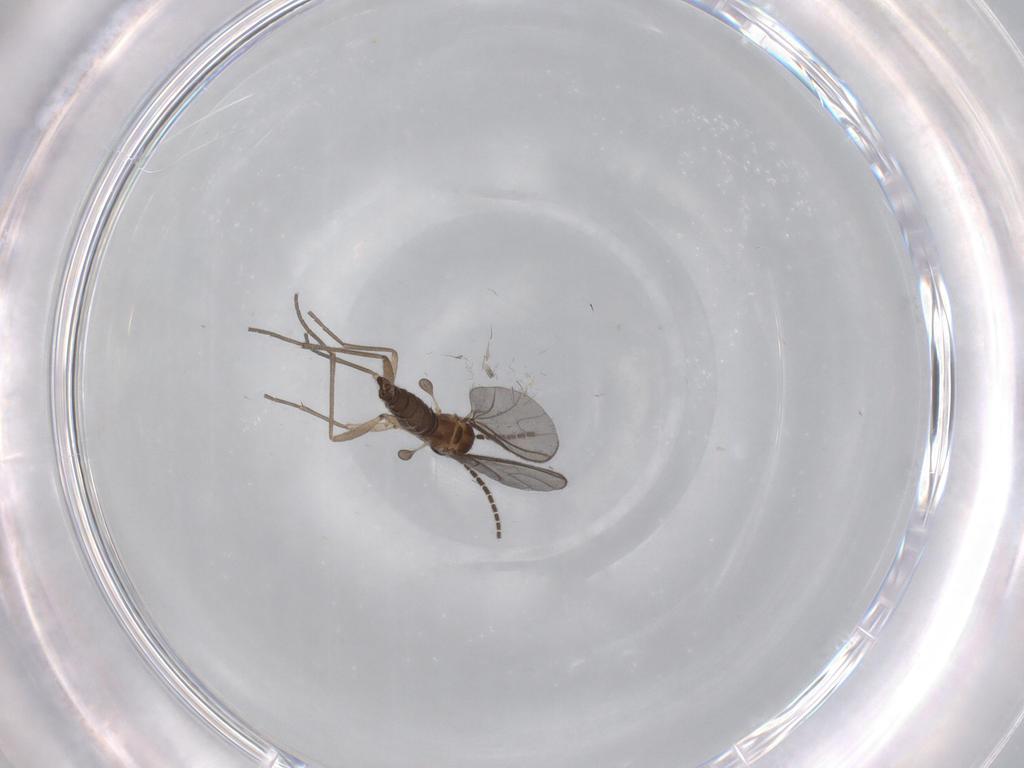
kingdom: Animalia
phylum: Arthropoda
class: Insecta
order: Diptera
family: Sciaridae
